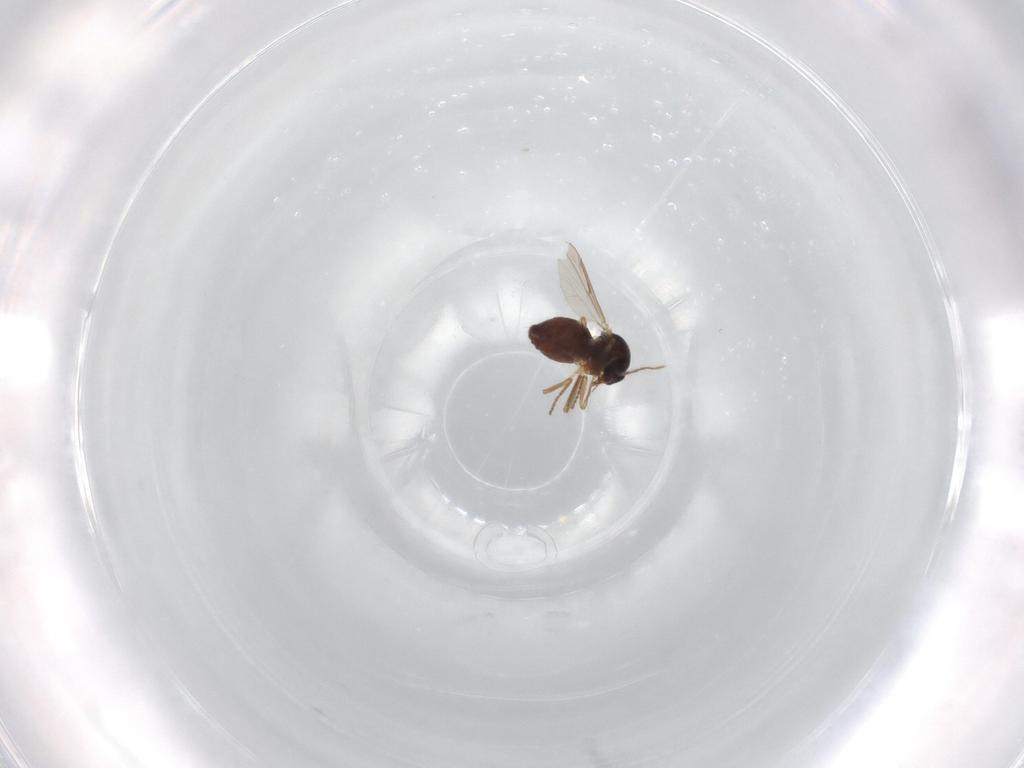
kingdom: Animalia
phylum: Arthropoda
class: Insecta
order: Diptera
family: Ceratopogonidae
